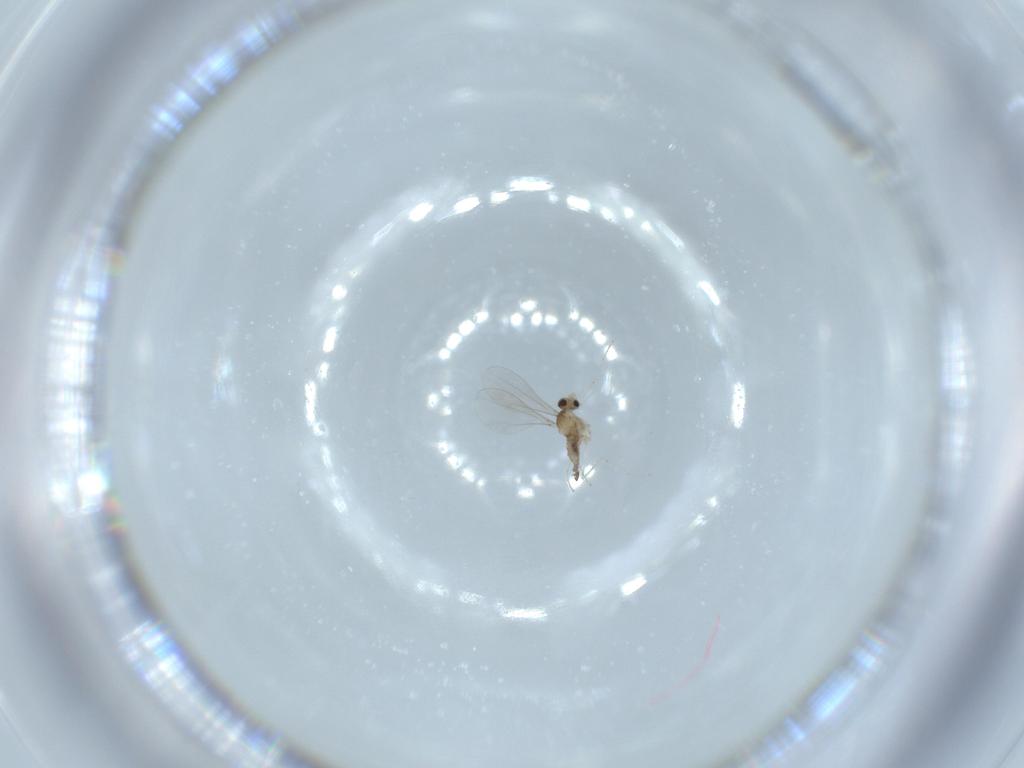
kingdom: Animalia
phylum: Arthropoda
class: Insecta
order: Diptera
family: Cecidomyiidae
